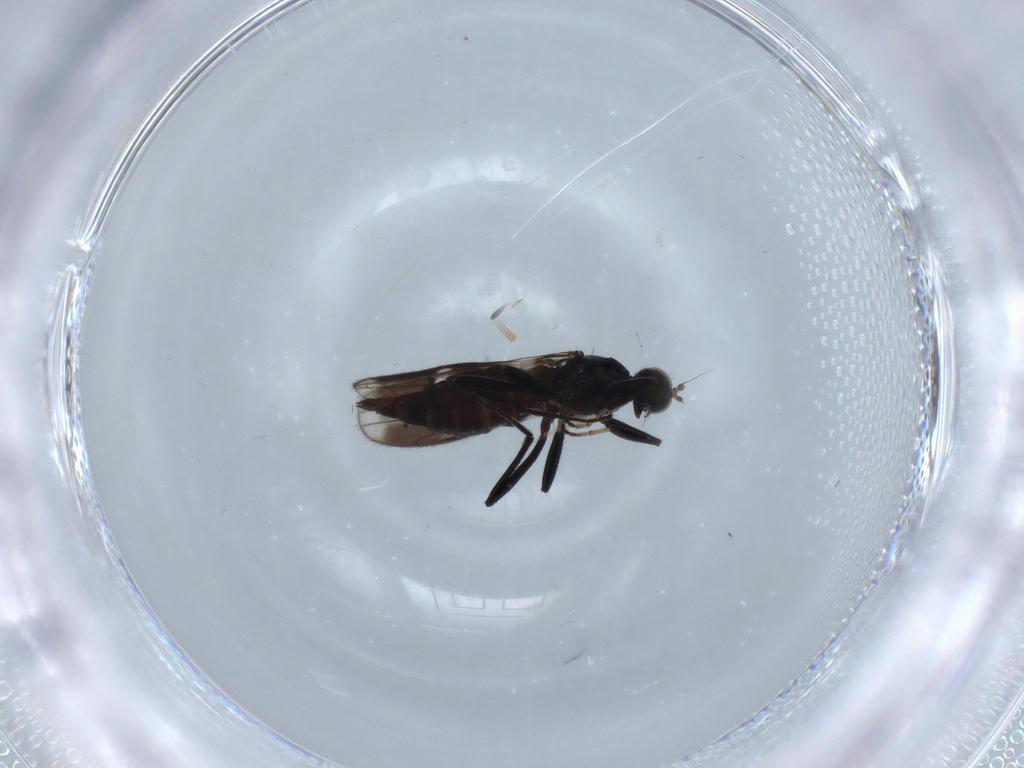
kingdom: Animalia
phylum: Arthropoda
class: Insecta
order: Diptera
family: Hybotidae
